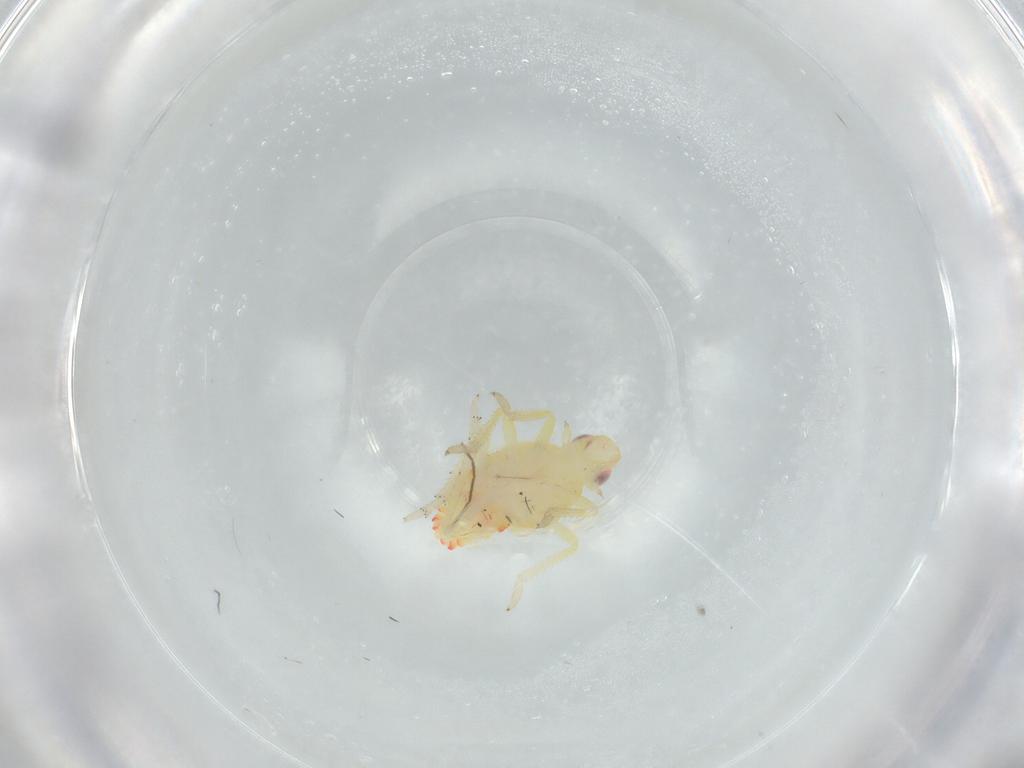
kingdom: Animalia
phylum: Arthropoda
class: Insecta
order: Hemiptera
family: Tropiduchidae
